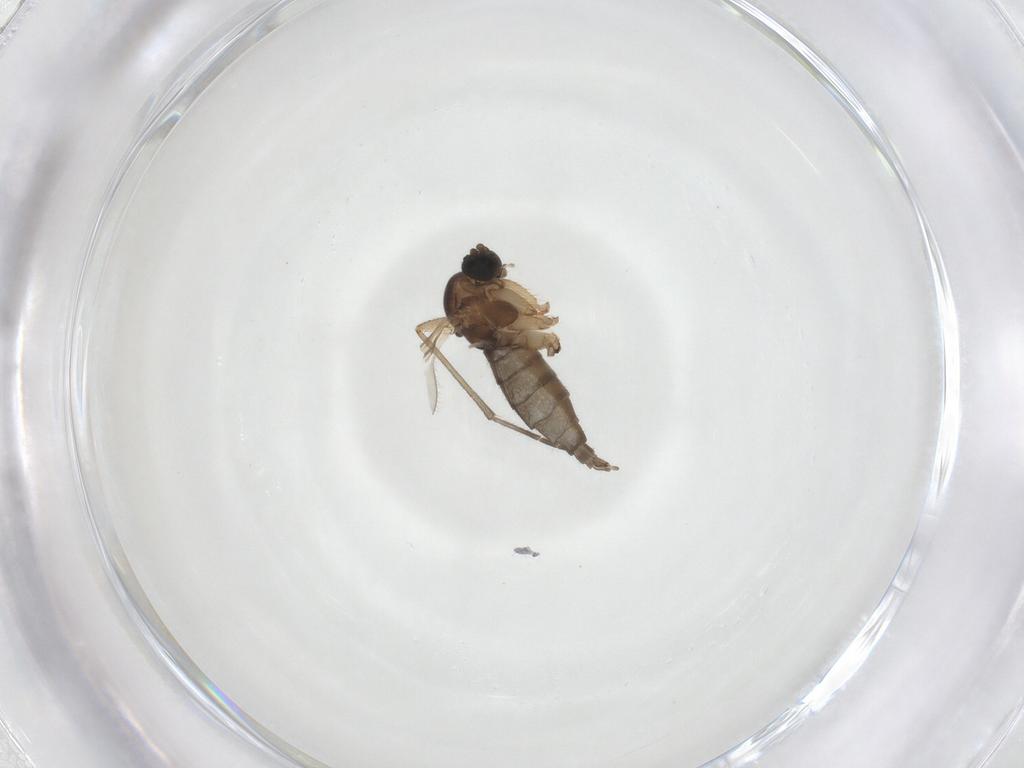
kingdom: Animalia
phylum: Arthropoda
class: Insecta
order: Diptera
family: Sciaridae
